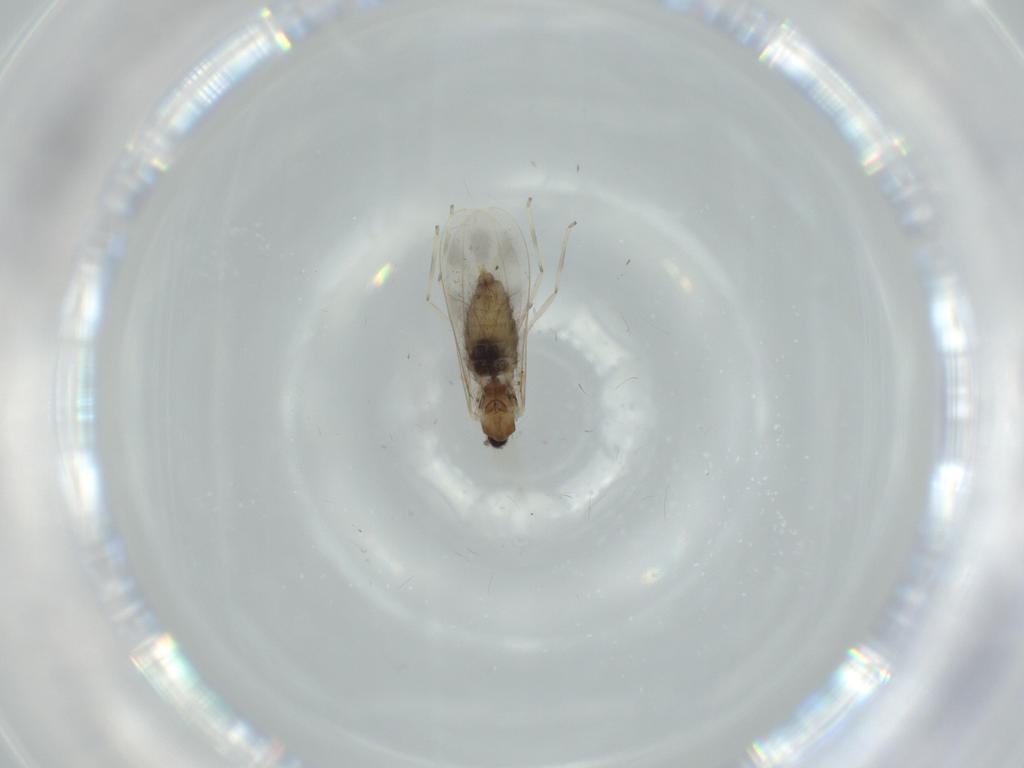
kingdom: Animalia
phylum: Arthropoda
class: Insecta
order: Diptera
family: Cecidomyiidae
